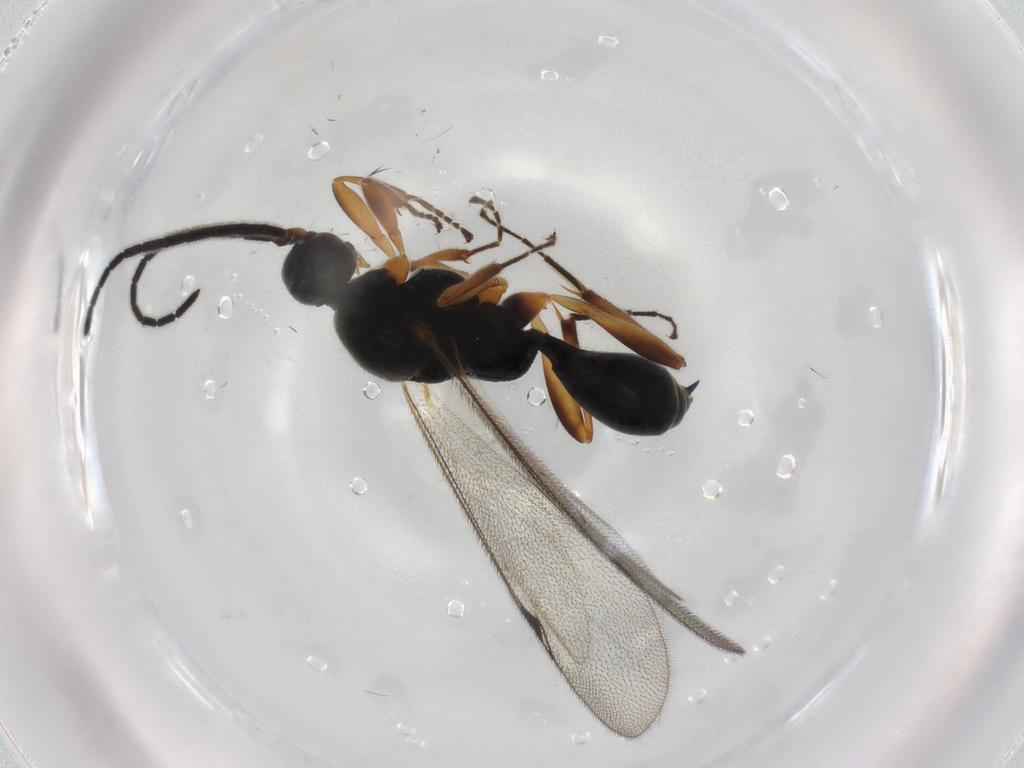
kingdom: Animalia
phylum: Arthropoda
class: Insecta
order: Hymenoptera
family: Proctotrupidae
